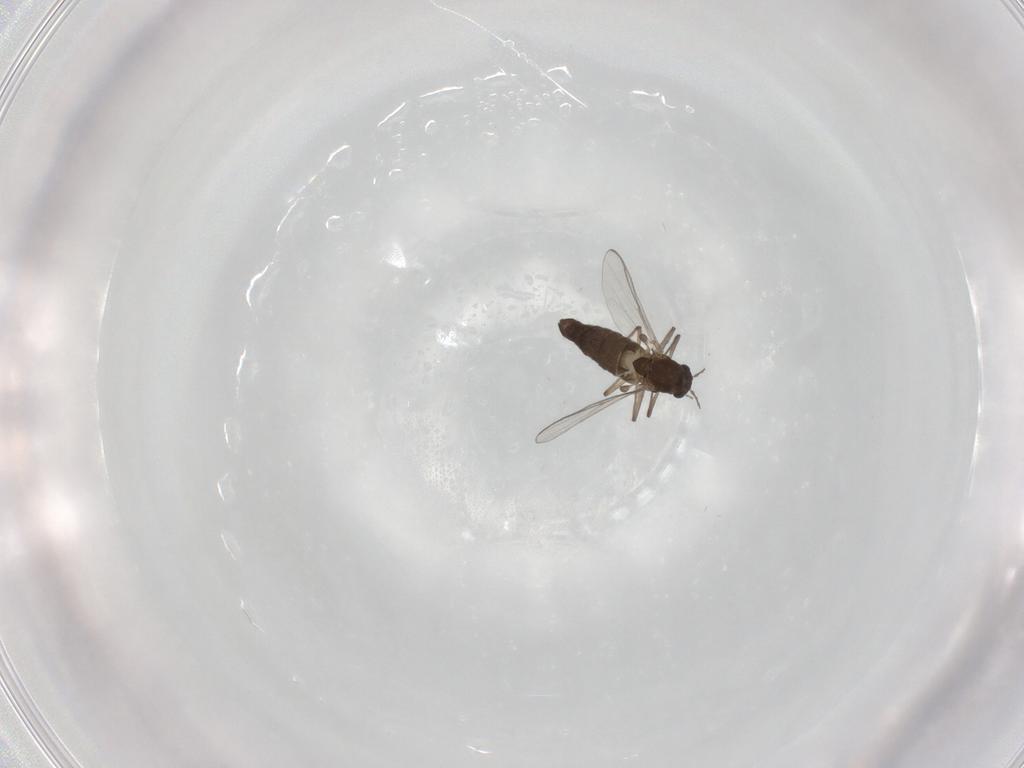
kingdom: Animalia
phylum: Arthropoda
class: Insecta
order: Diptera
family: Chironomidae
